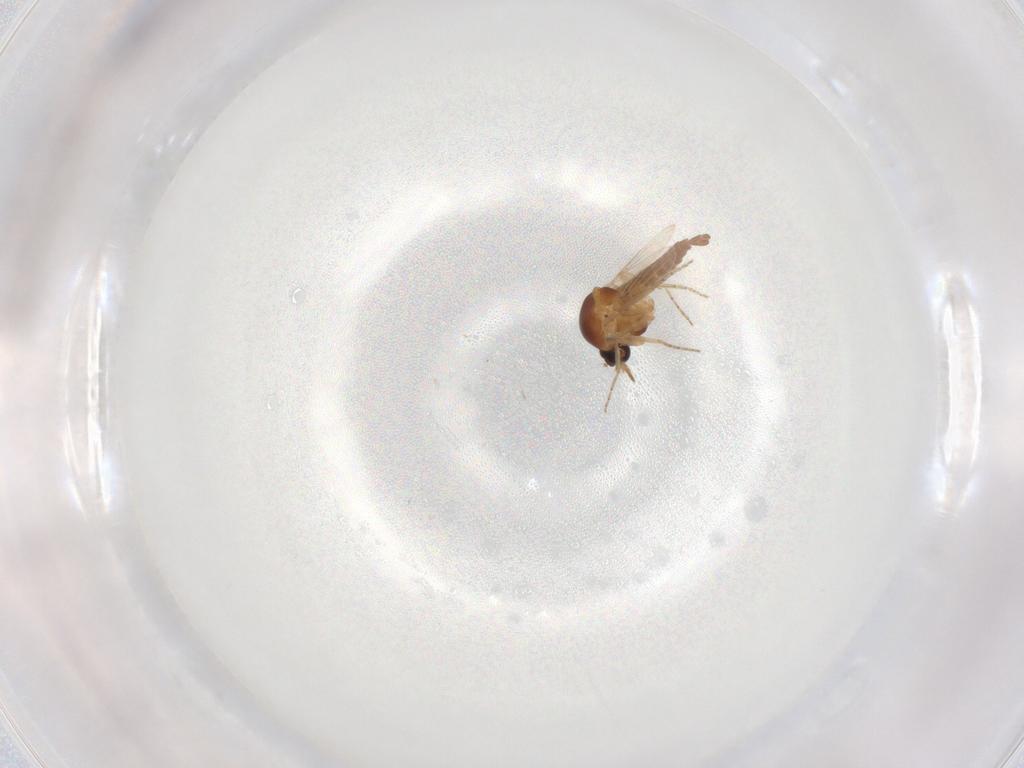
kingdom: Animalia
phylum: Arthropoda
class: Insecta
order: Diptera
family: Ceratopogonidae
